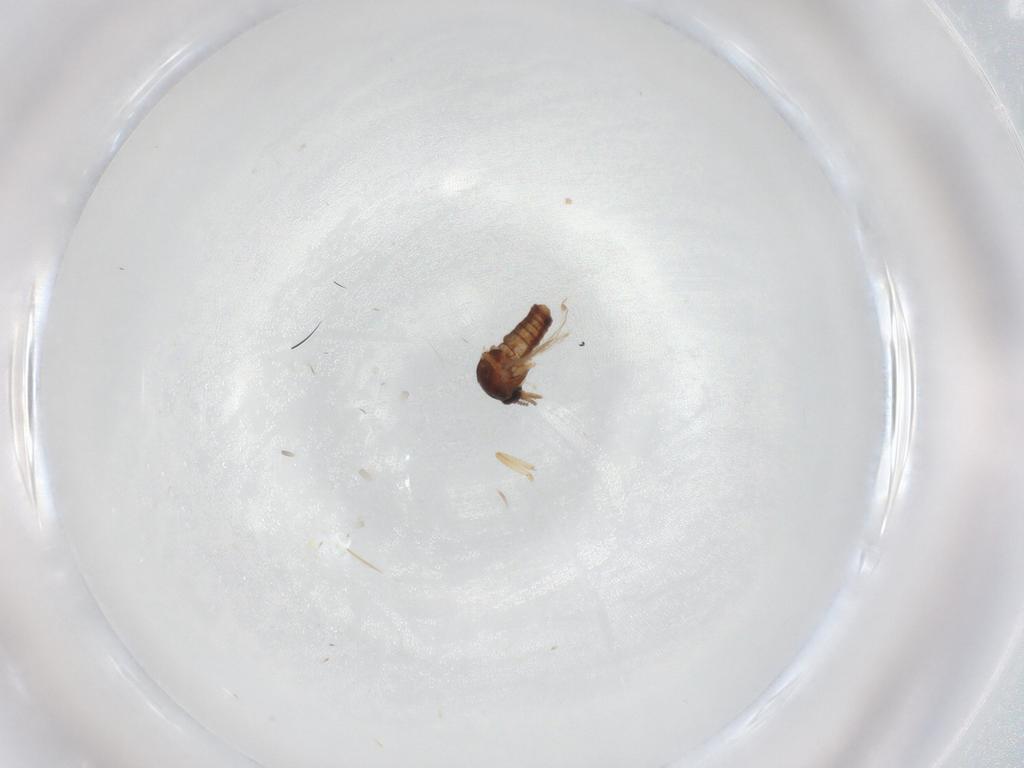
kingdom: Animalia
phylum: Arthropoda
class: Insecta
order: Diptera
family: Ceratopogonidae
